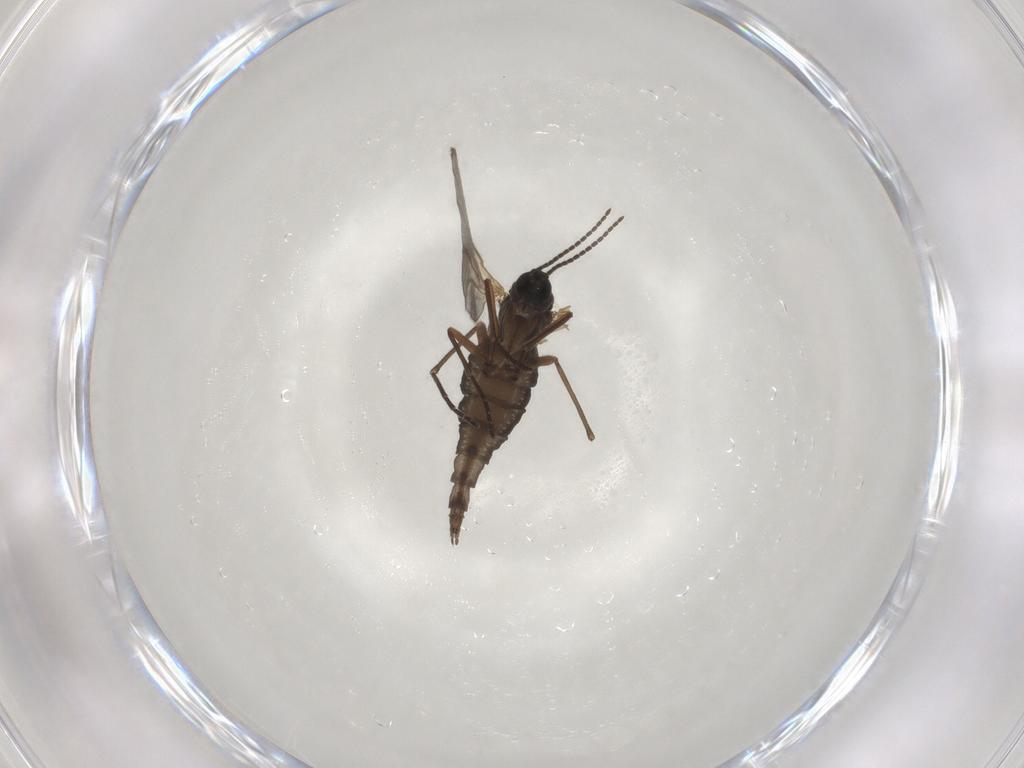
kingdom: Animalia
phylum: Arthropoda
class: Insecta
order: Diptera
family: Sciaridae
